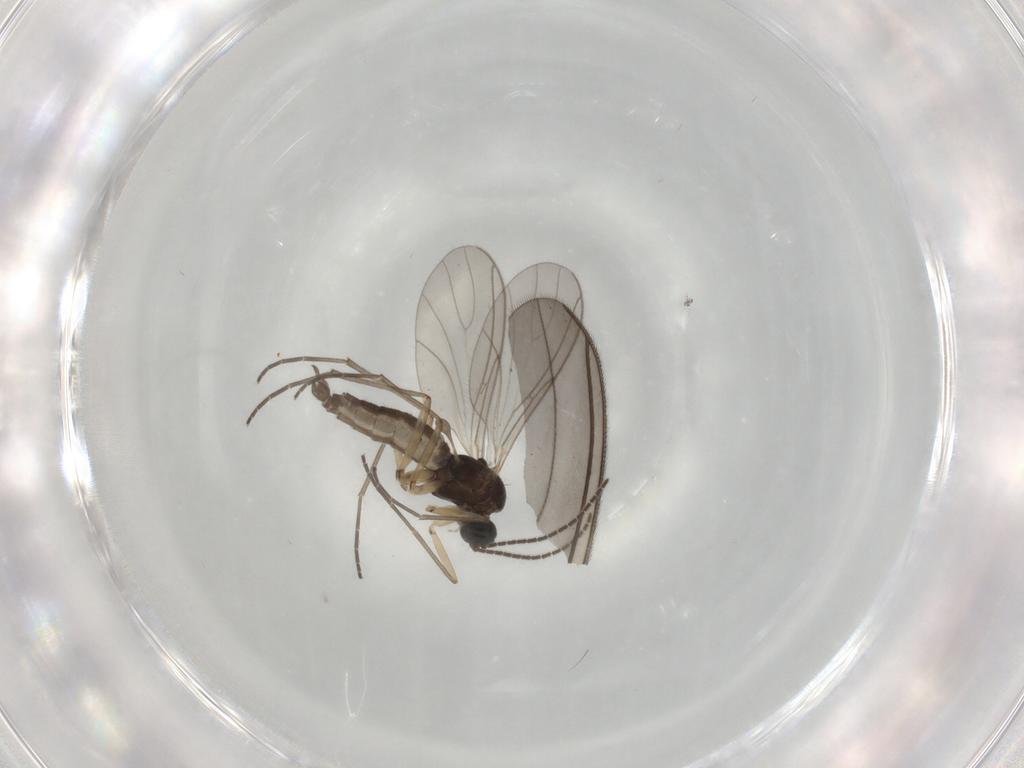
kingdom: Animalia
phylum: Arthropoda
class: Insecta
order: Diptera
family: Sciaridae
